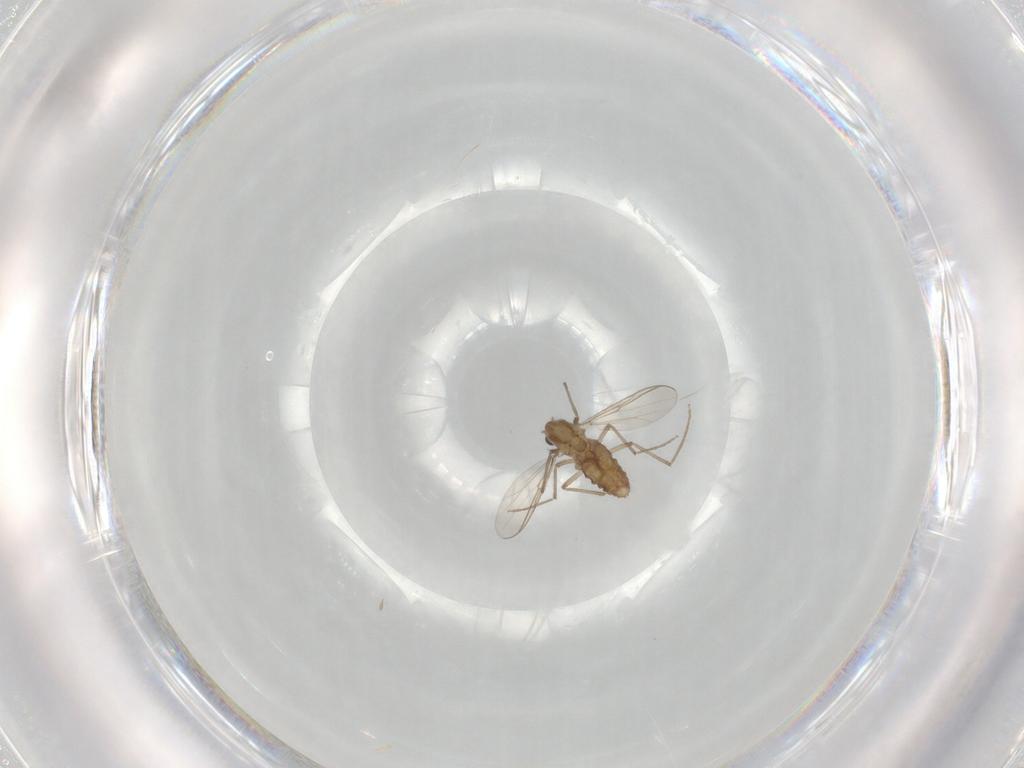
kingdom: Animalia
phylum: Arthropoda
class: Insecta
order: Diptera
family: Chironomidae
